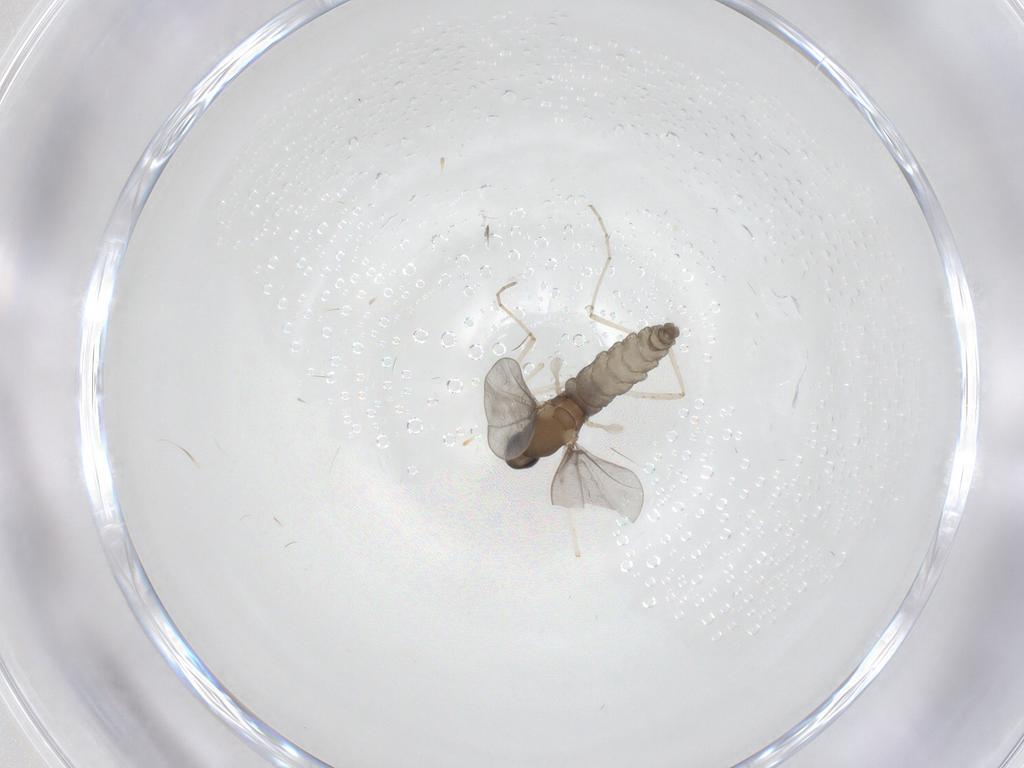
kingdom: Animalia
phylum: Arthropoda
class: Insecta
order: Diptera
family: Cecidomyiidae
